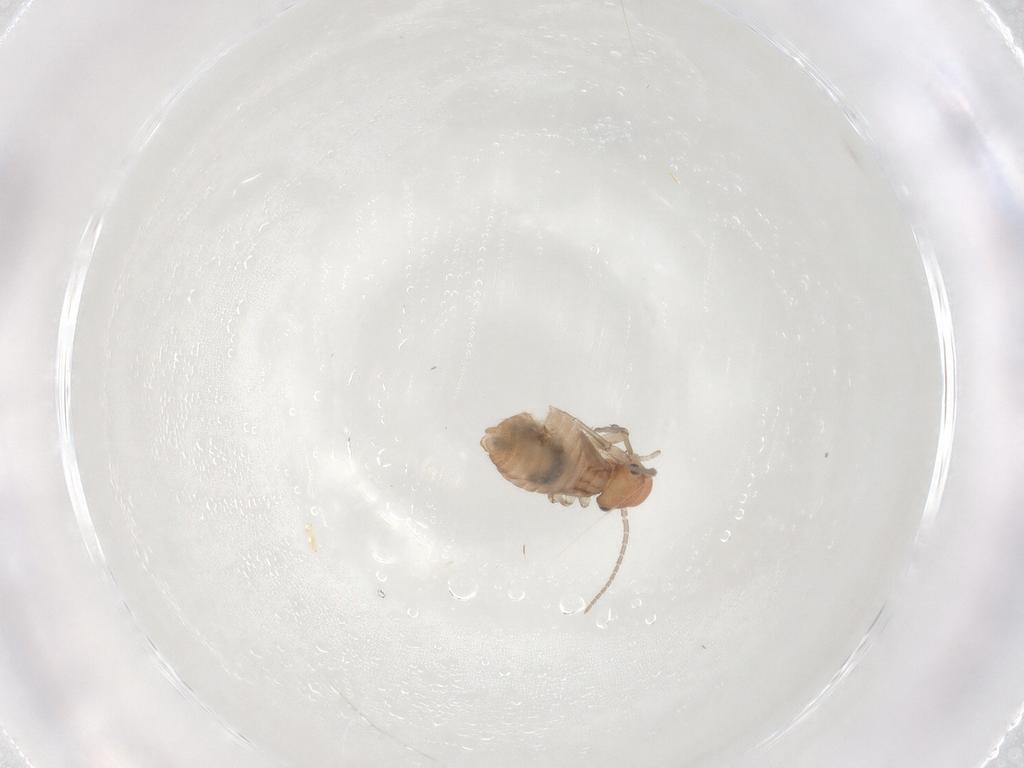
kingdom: Animalia
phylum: Arthropoda
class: Insecta
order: Psocodea
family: Caeciliusidae
